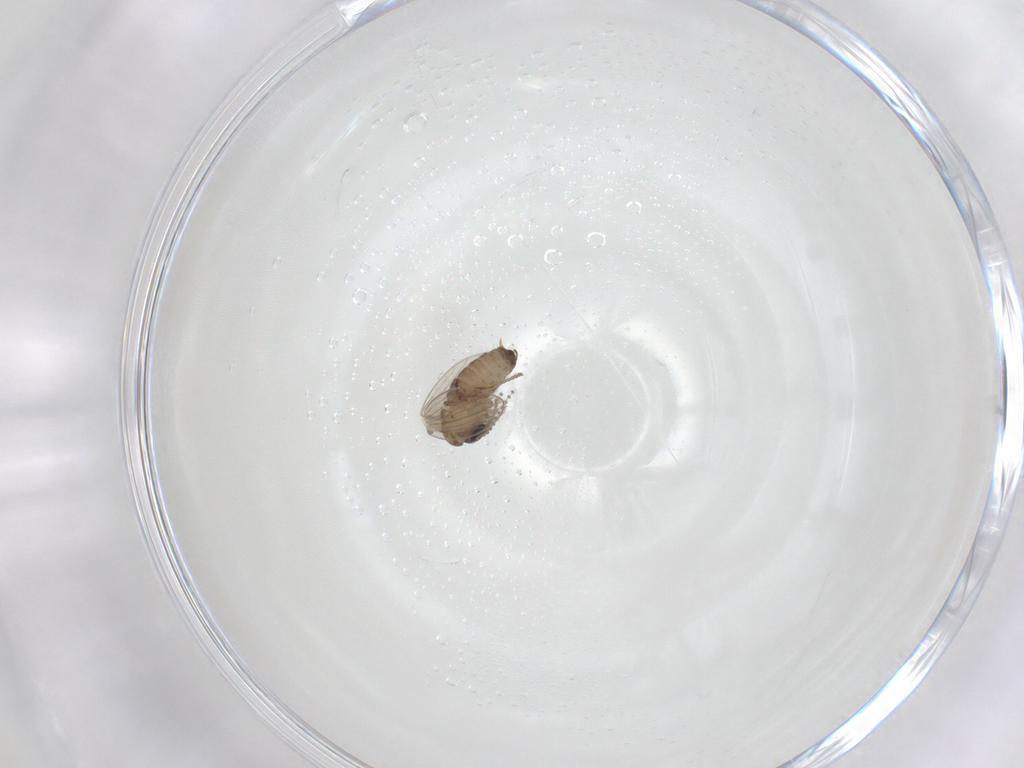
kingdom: Animalia
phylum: Arthropoda
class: Insecta
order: Diptera
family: Psychodidae
